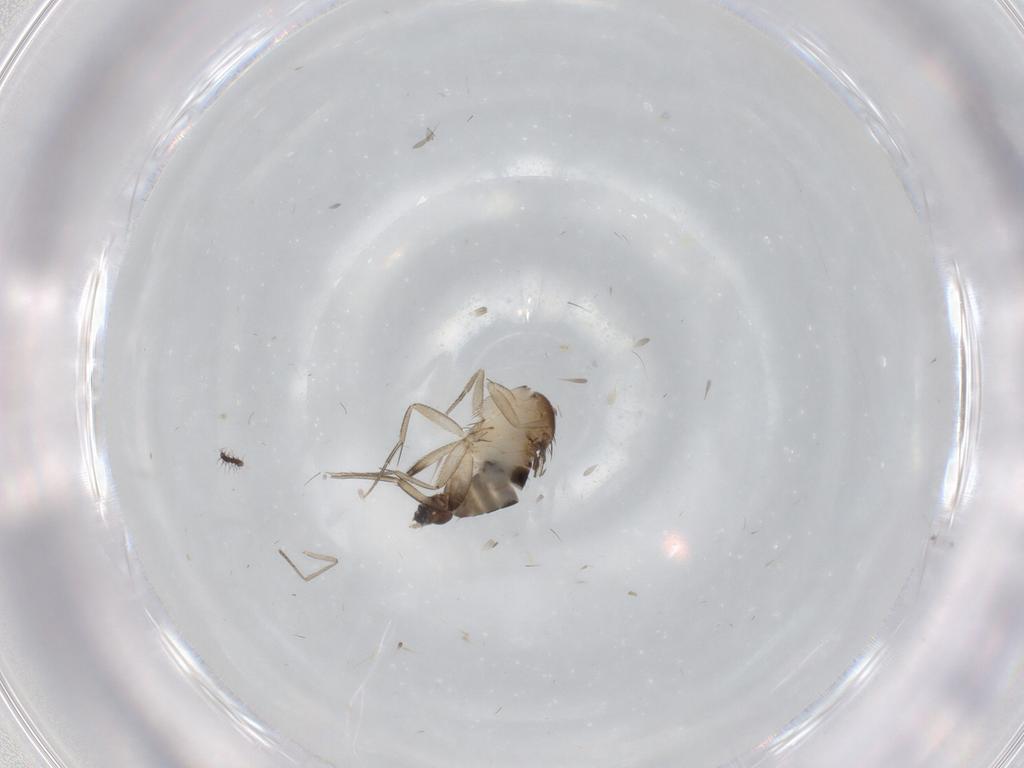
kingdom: Animalia
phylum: Arthropoda
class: Insecta
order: Diptera
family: Phoridae
